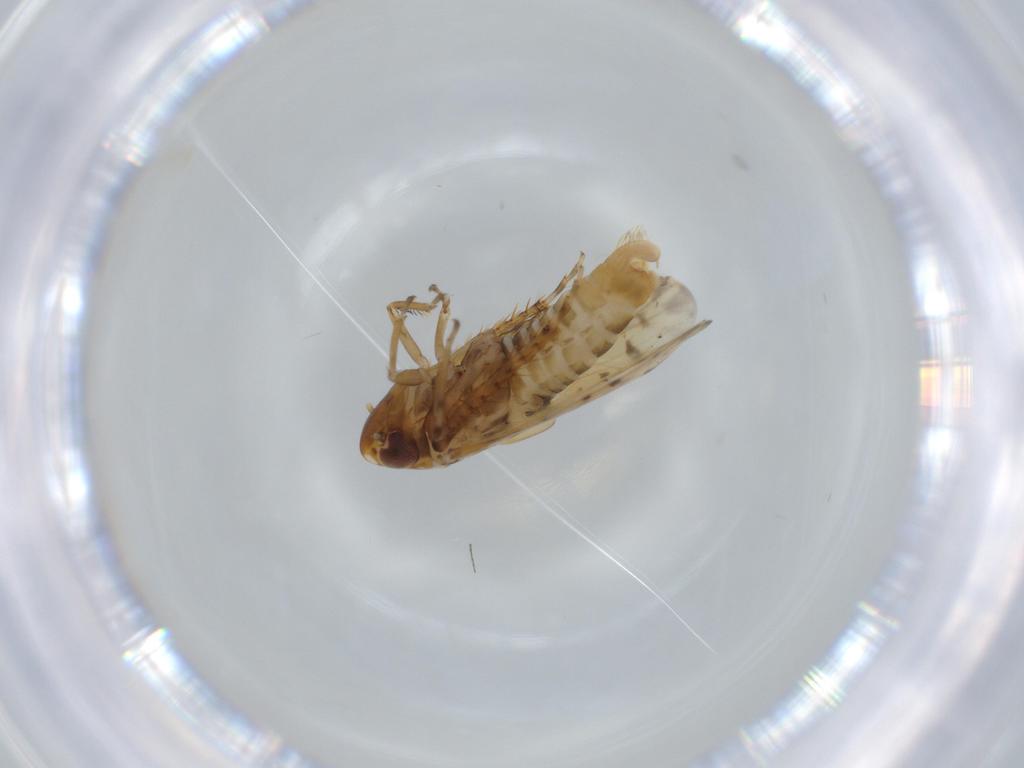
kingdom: Animalia
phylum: Arthropoda
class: Insecta
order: Hemiptera
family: Cicadellidae
